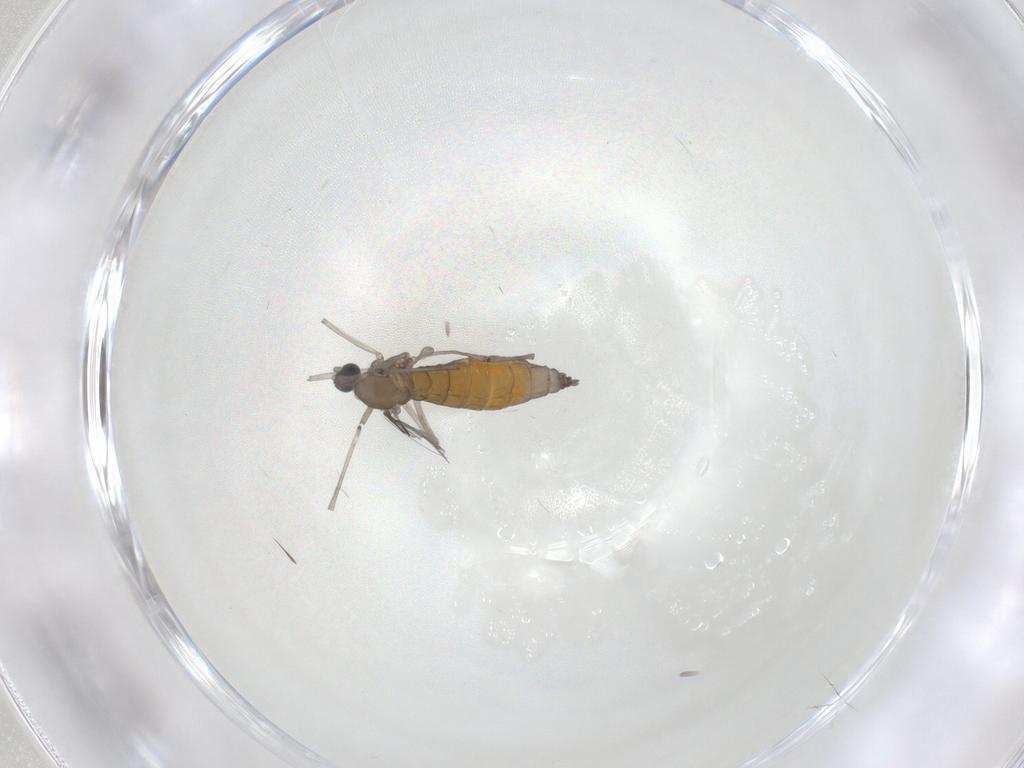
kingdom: Animalia
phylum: Arthropoda
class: Insecta
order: Diptera
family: Cecidomyiidae
